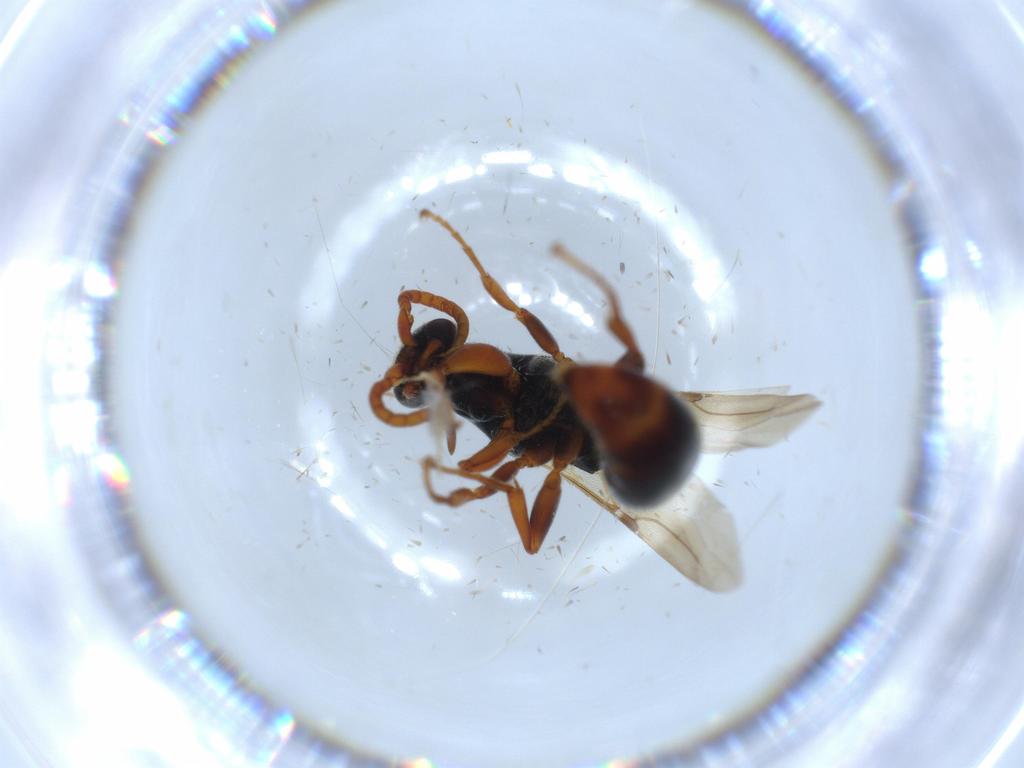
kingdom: Animalia
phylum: Arthropoda
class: Insecta
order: Hymenoptera
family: Bethylidae
